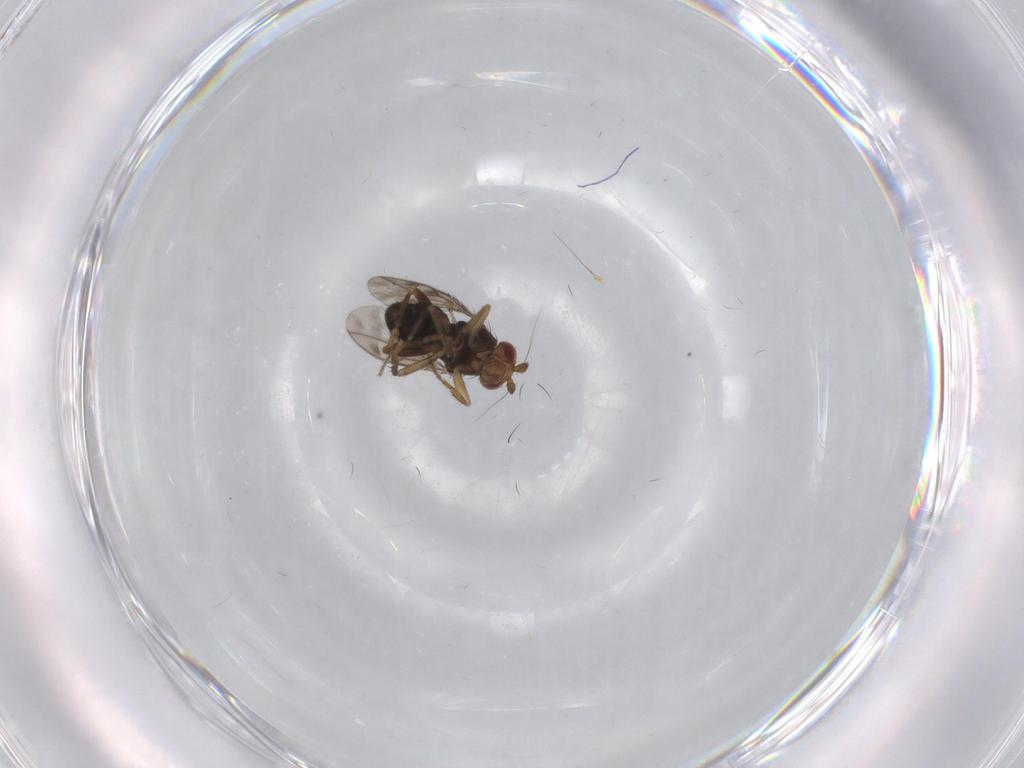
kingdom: Animalia
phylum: Arthropoda
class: Insecta
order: Diptera
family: Sphaeroceridae
